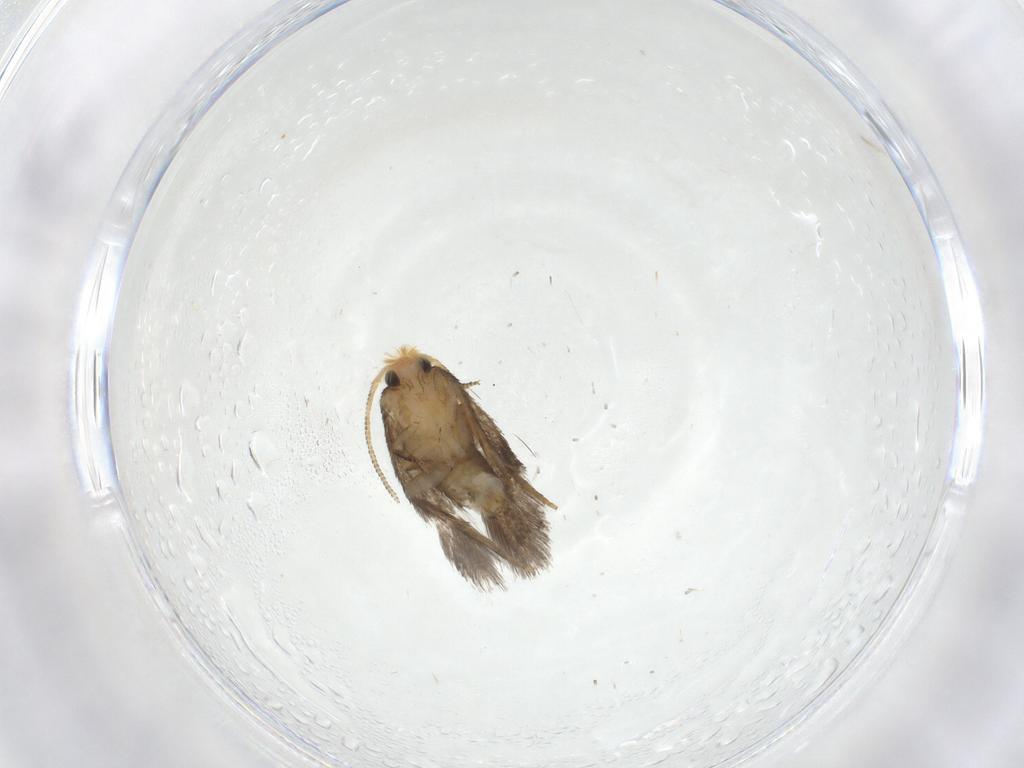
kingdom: Animalia
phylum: Arthropoda
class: Insecta
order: Lepidoptera
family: Nepticulidae
